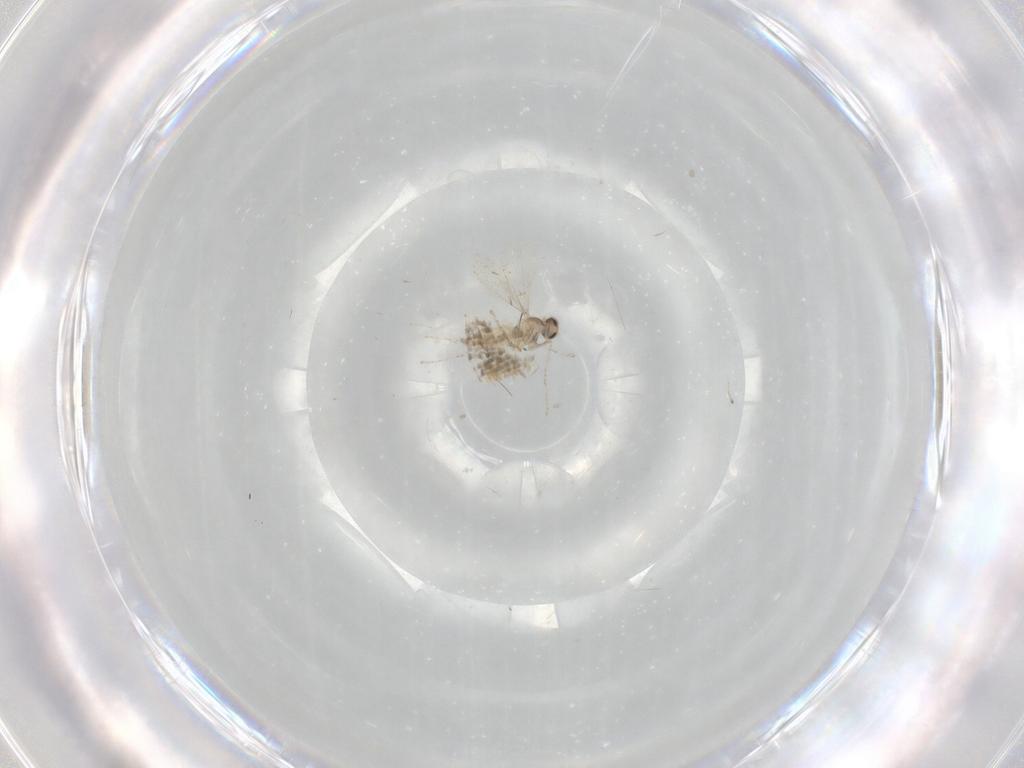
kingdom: Animalia
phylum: Arthropoda
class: Insecta
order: Diptera
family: Cecidomyiidae
